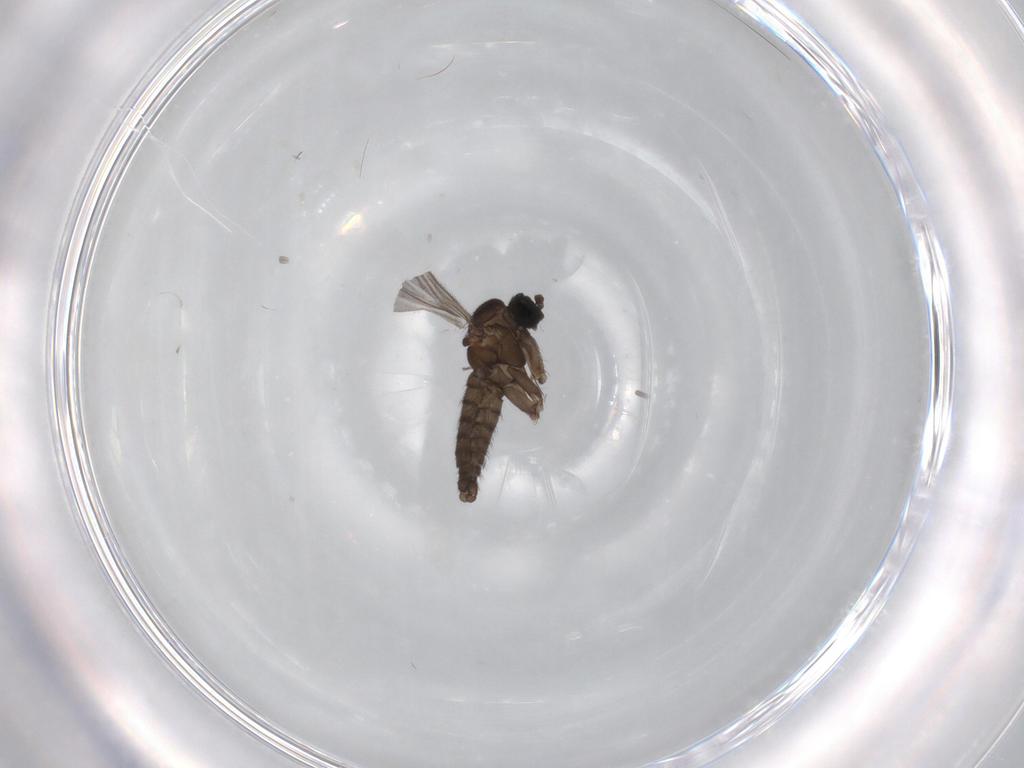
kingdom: Animalia
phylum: Arthropoda
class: Insecta
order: Diptera
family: Sciaridae
